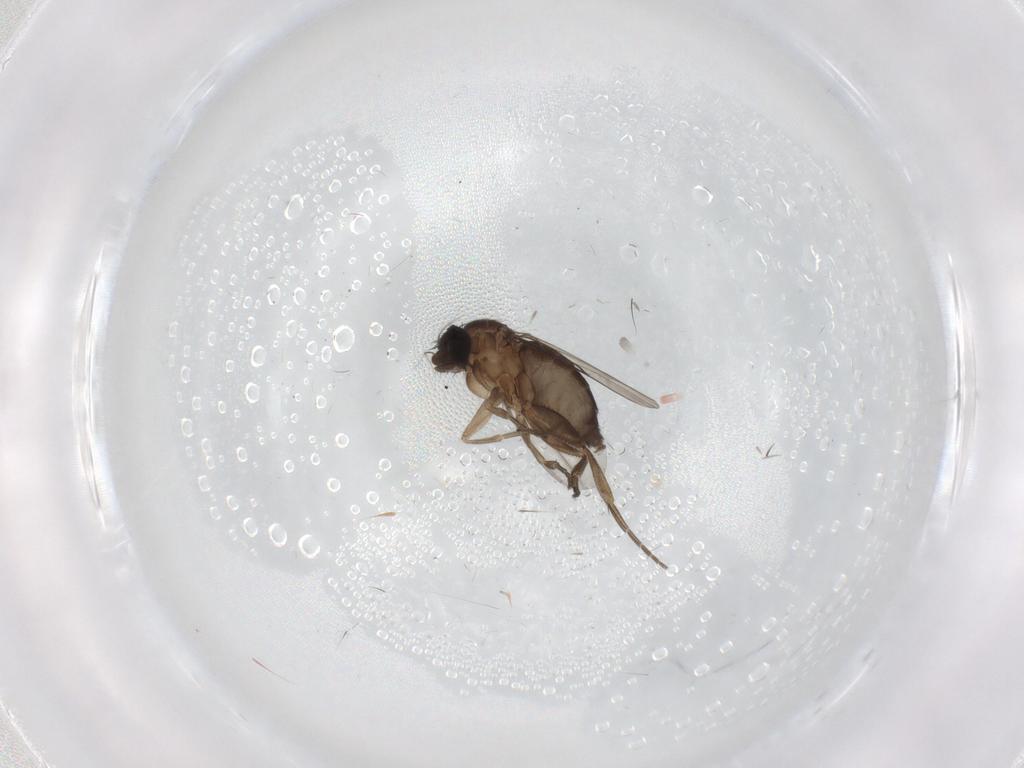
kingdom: Animalia
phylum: Arthropoda
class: Insecta
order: Diptera
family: Phoridae
